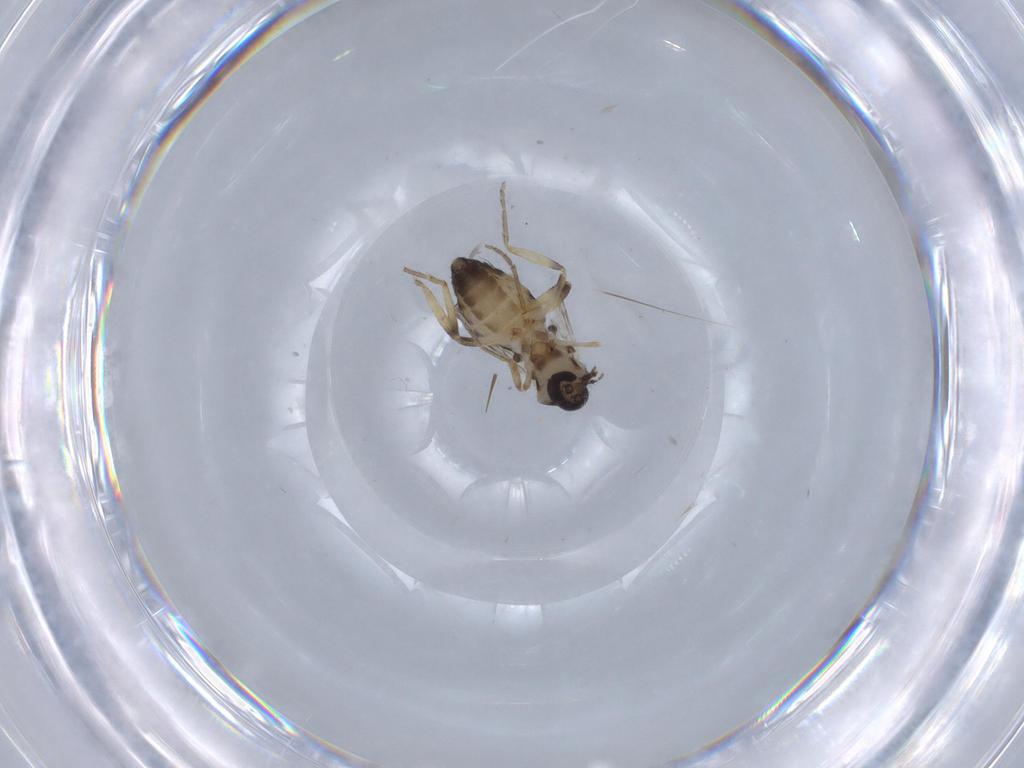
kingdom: Animalia
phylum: Arthropoda
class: Insecta
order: Diptera
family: Ceratopogonidae
